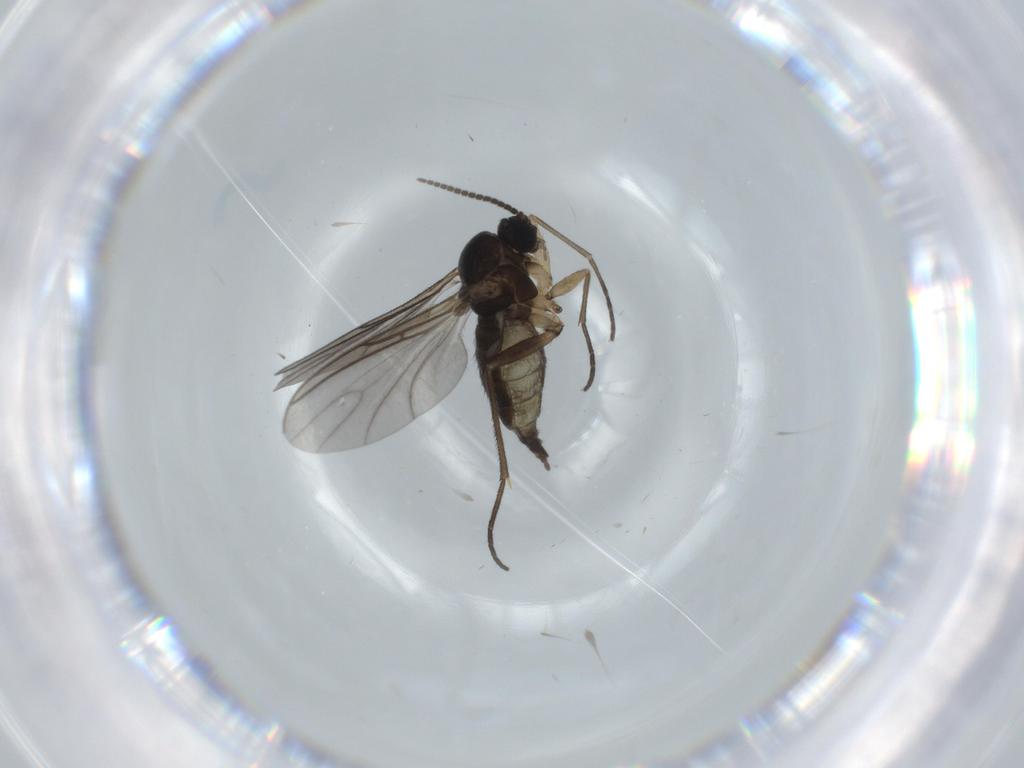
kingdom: Animalia
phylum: Arthropoda
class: Insecta
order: Diptera
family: Sciaridae
